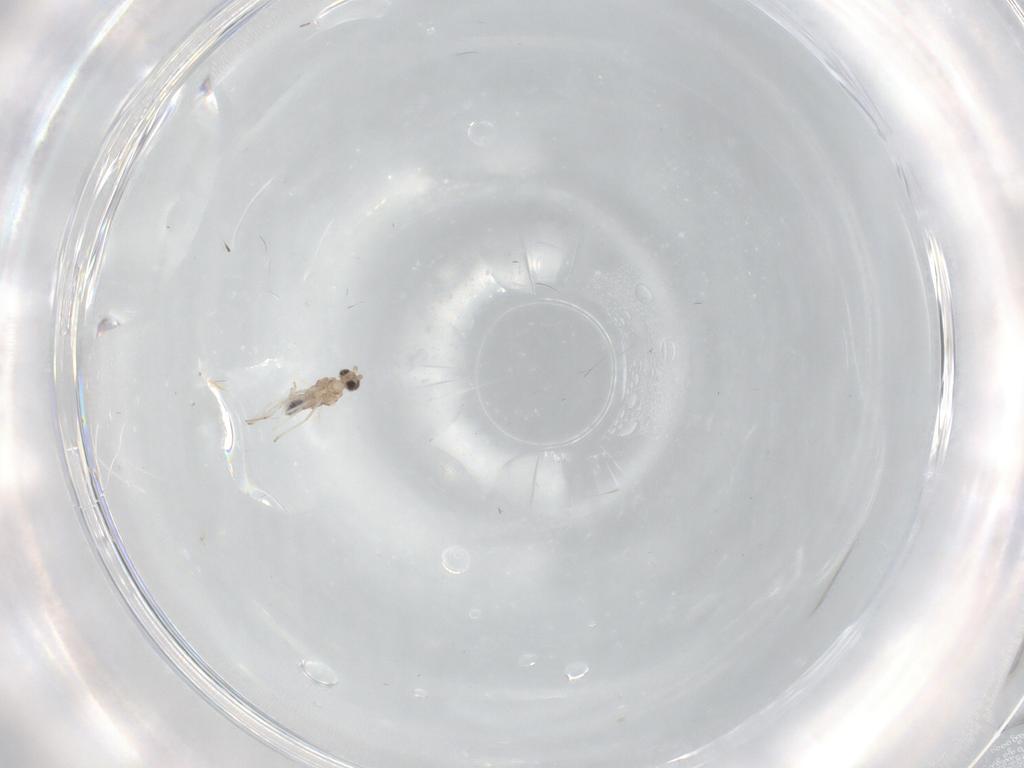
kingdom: Animalia
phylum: Arthropoda
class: Insecta
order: Diptera
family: Cecidomyiidae
